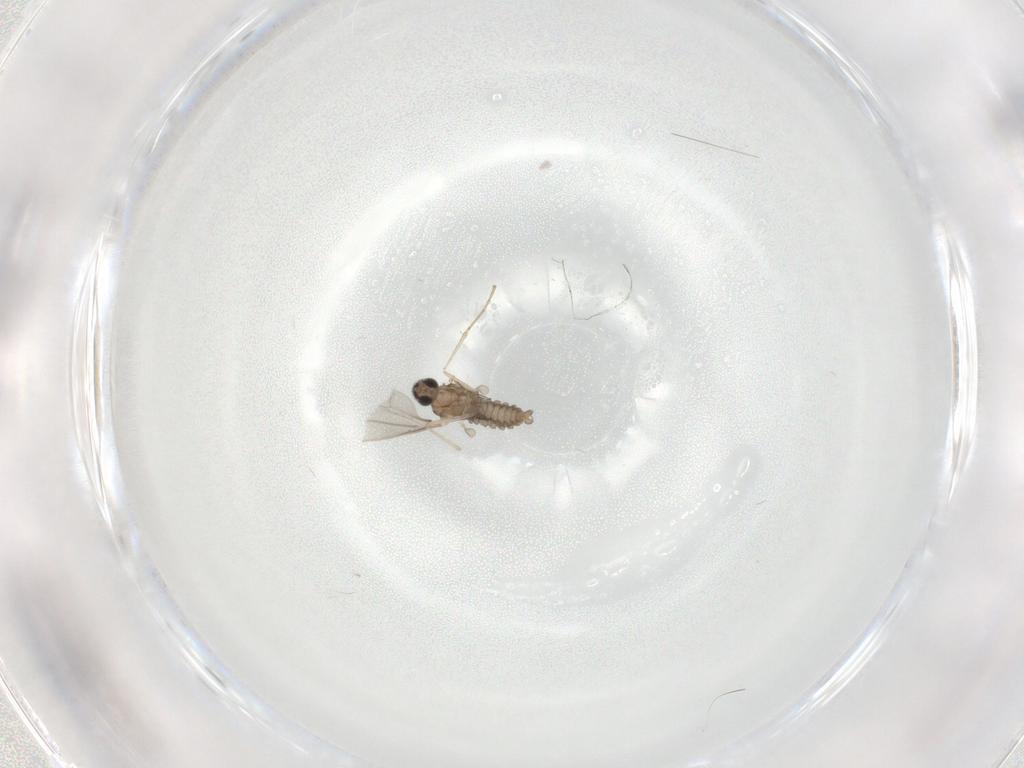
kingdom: Animalia
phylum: Arthropoda
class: Insecta
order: Diptera
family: Cecidomyiidae
